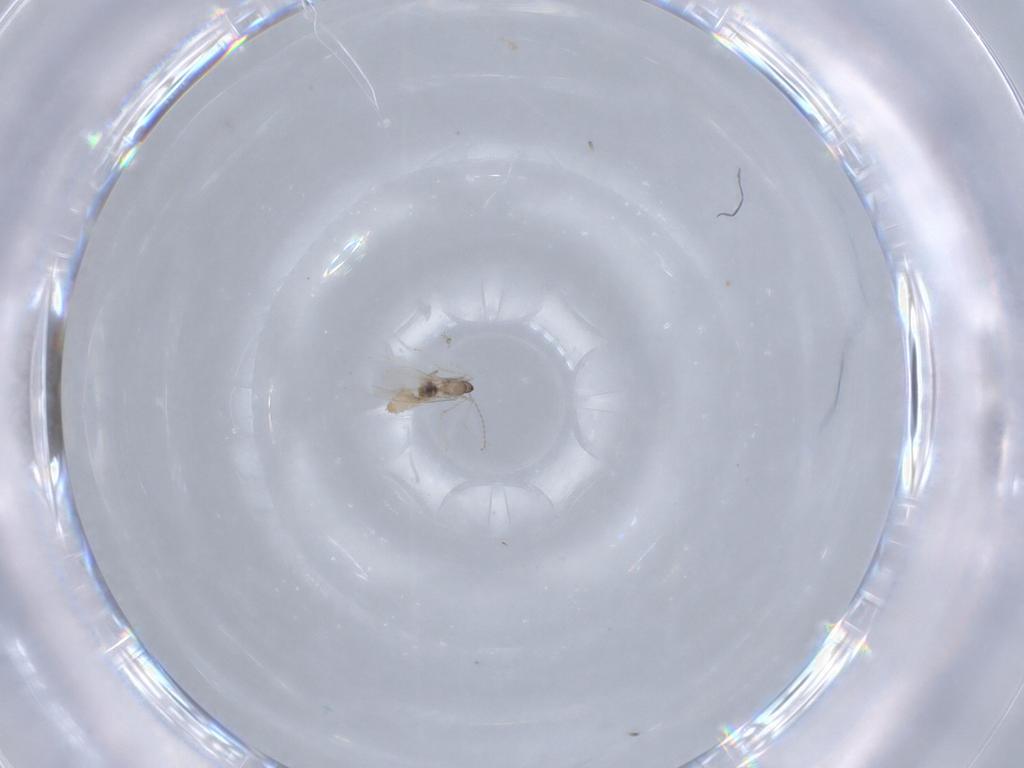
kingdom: Animalia
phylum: Arthropoda
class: Insecta
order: Diptera
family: Cecidomyiidae
